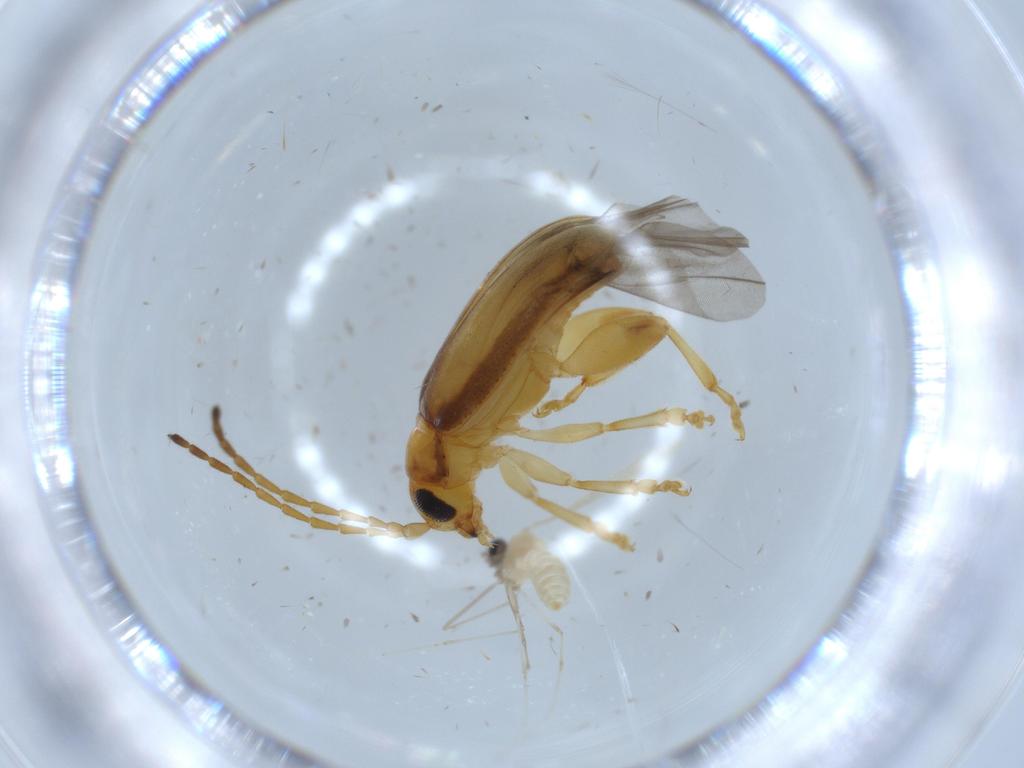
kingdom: Animalia
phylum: Arthropoda
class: Insecta
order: Coleoptera
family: Chrysomelidae
